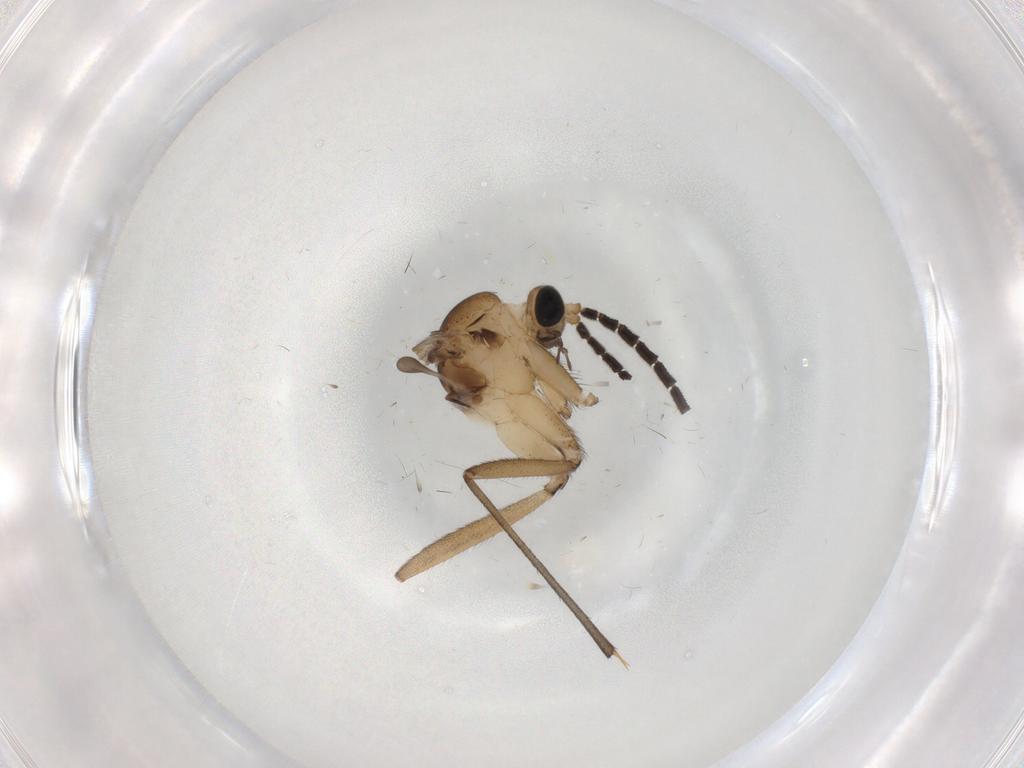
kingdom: Animalia
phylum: Arthropoda
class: Insecta
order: Diptera
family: Sciaridae
